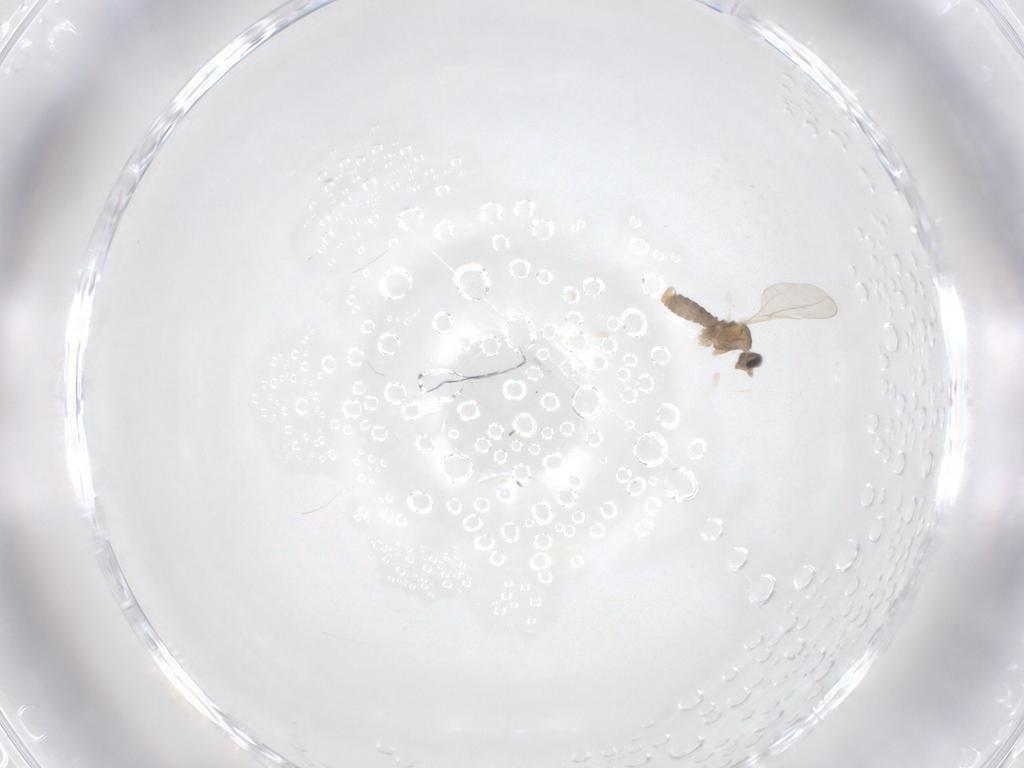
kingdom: Animalia
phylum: Arthropoda
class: Insecta
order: Diptera
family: Cecidomyiidae
